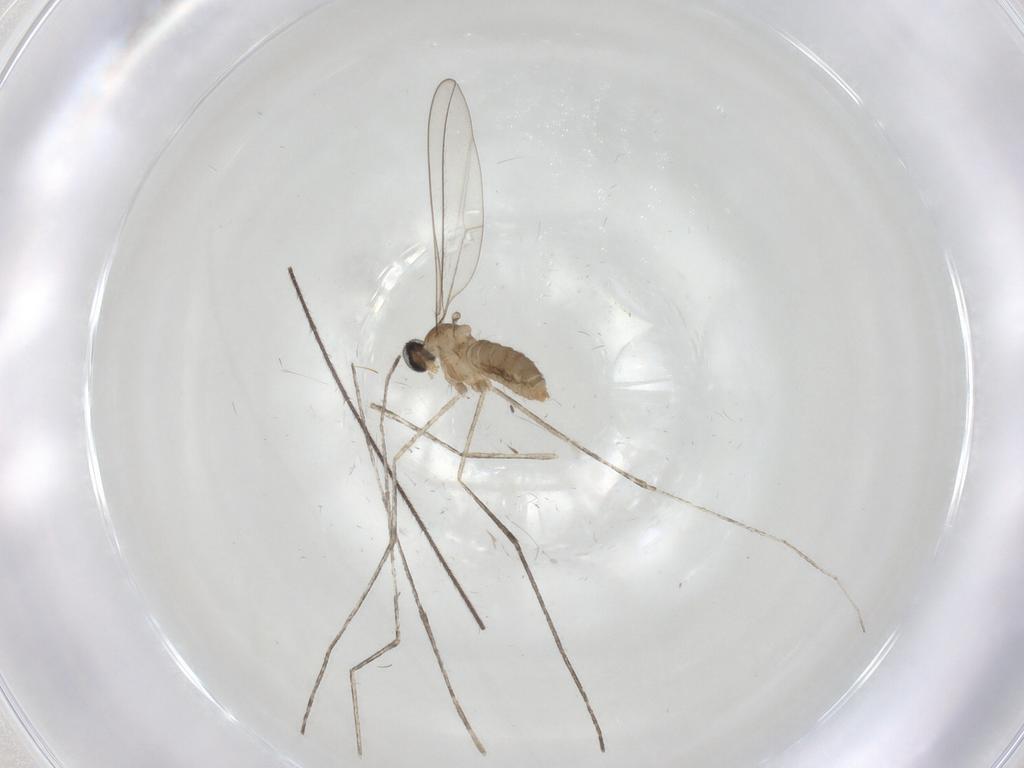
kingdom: Animalia
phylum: Arthropoda
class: Insecta
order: Diptera
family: Cecidomyiidae
